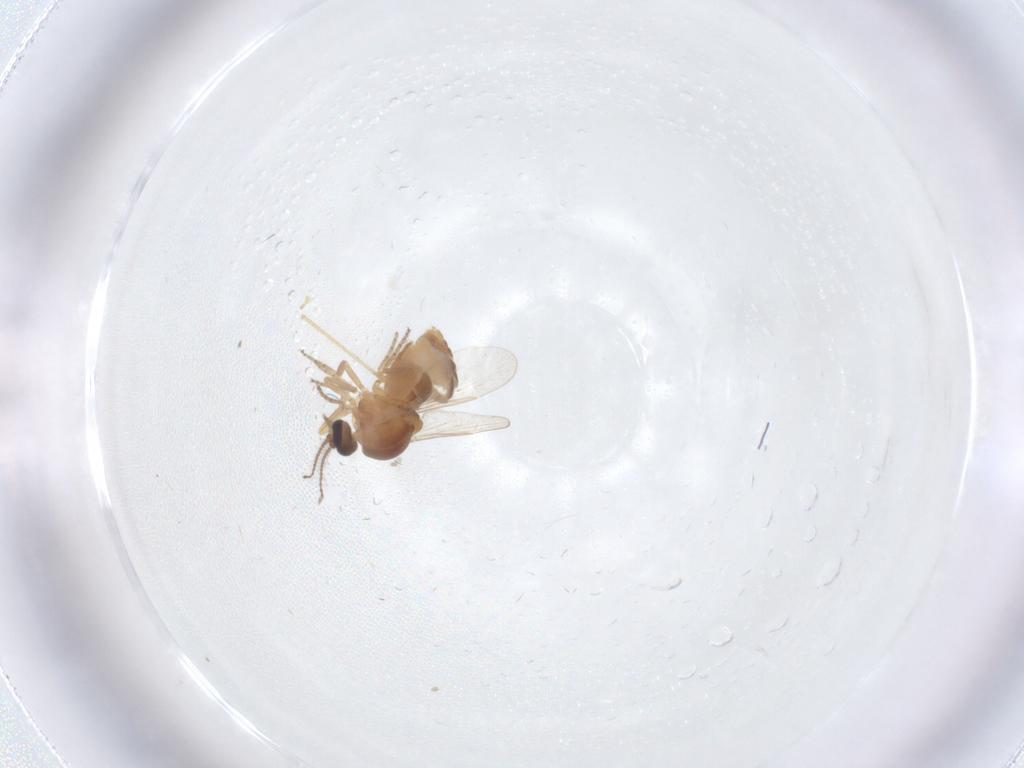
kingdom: Animalia
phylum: Arthropoda
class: Insecta
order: Diptera
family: Ceratopogonidae
